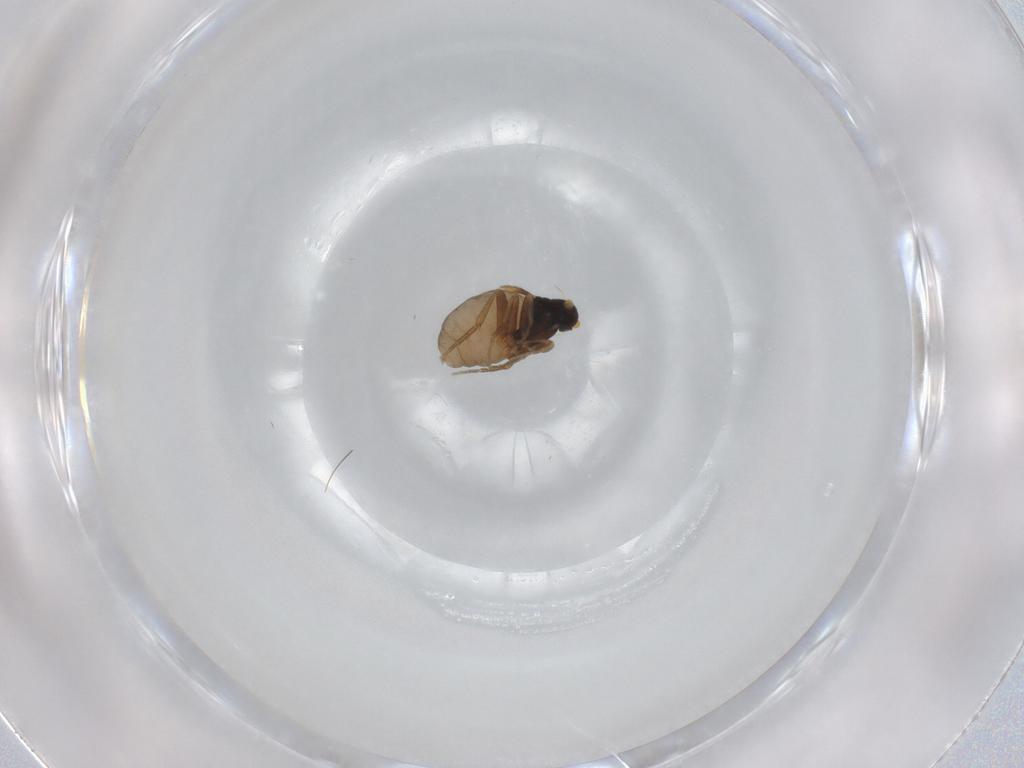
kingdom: Animalia
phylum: Arthropoda
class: Insecta
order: Diptera
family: Phoridae
